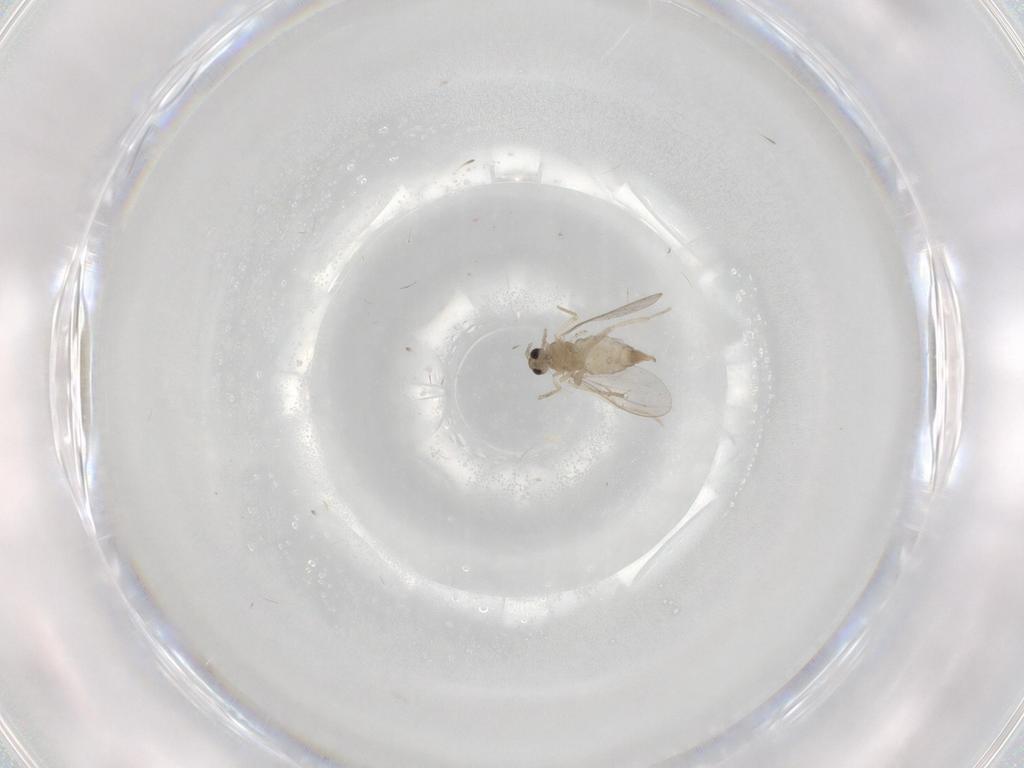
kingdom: Animalia
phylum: Arthropoda
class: Insecta
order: Diptera
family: Cecidomyiidae
